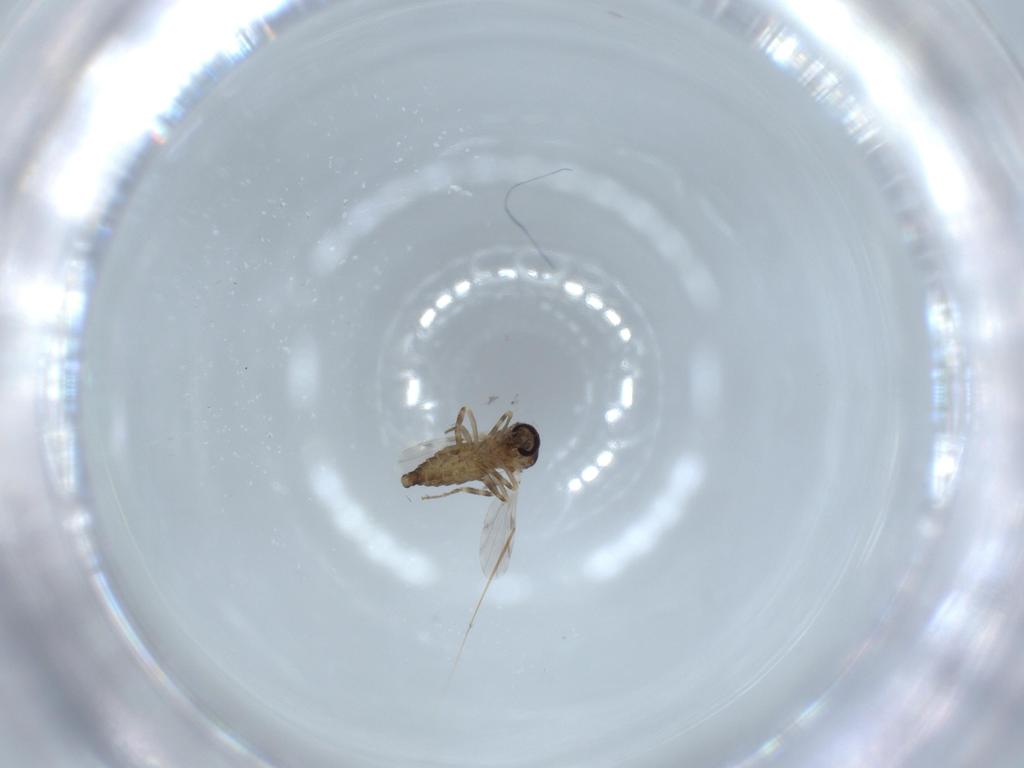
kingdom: Animalia
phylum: Arthropoda
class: Insecta
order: Diptera
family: Ceratopogonidae
